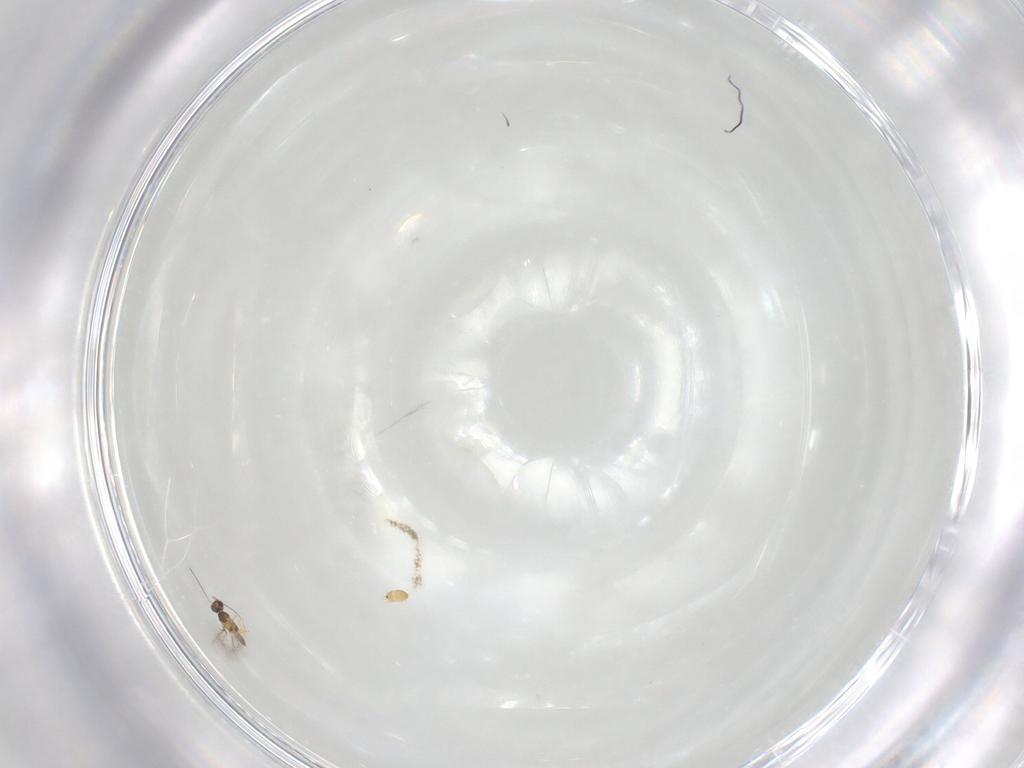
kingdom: Animalia
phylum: Arthropoda
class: Insecta
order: Hymenoptera
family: Mymaridae
